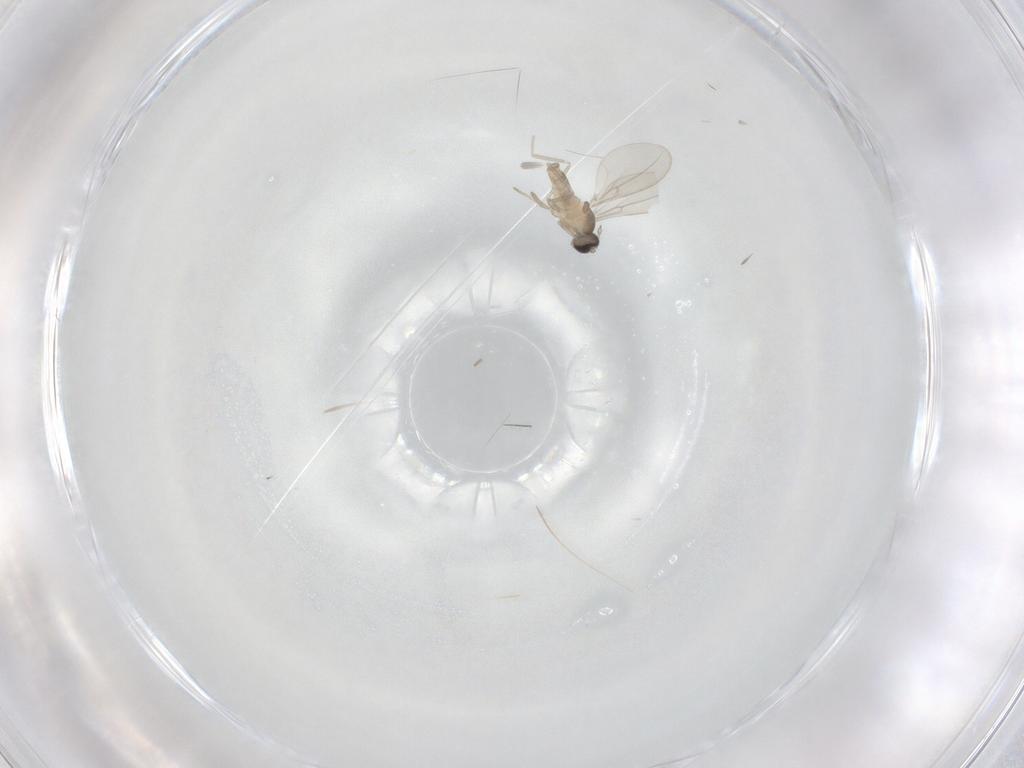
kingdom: Animalia
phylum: Arthropoda
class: Insecta
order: Diptera
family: Cecidomyiidae
